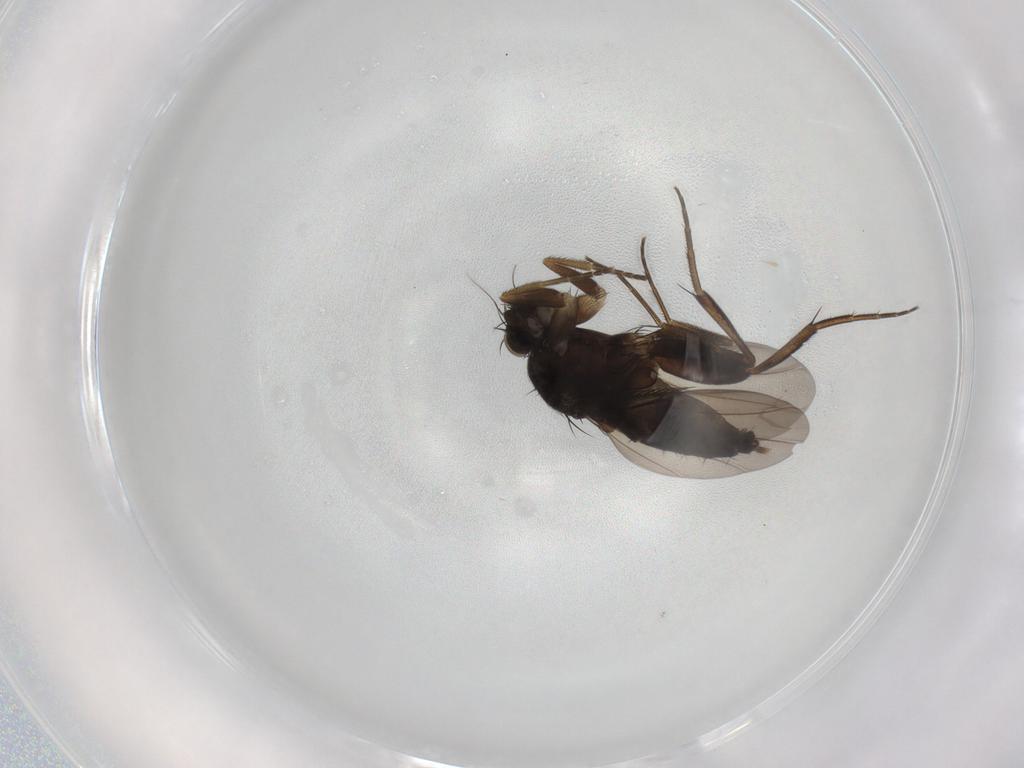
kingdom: Animalia
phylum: Arthropoda
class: Insecta
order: Diptera
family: Phoridae
